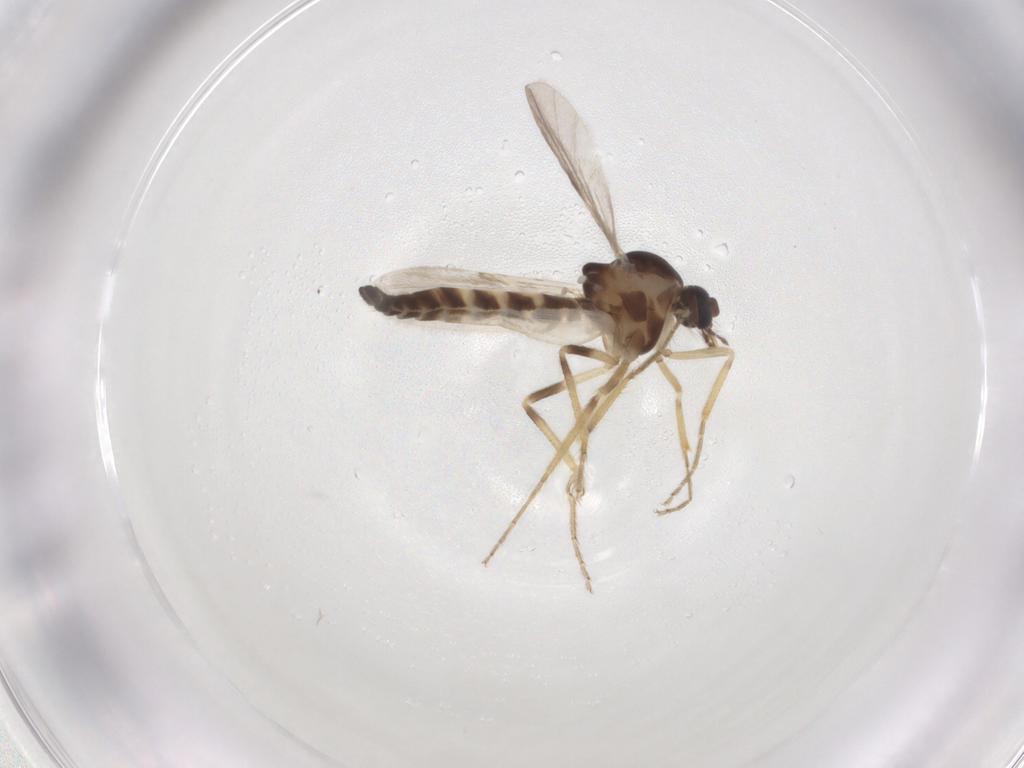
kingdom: Animalia
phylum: Arthropoda
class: Insecta
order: Diptera
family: Ceratopogonidae
